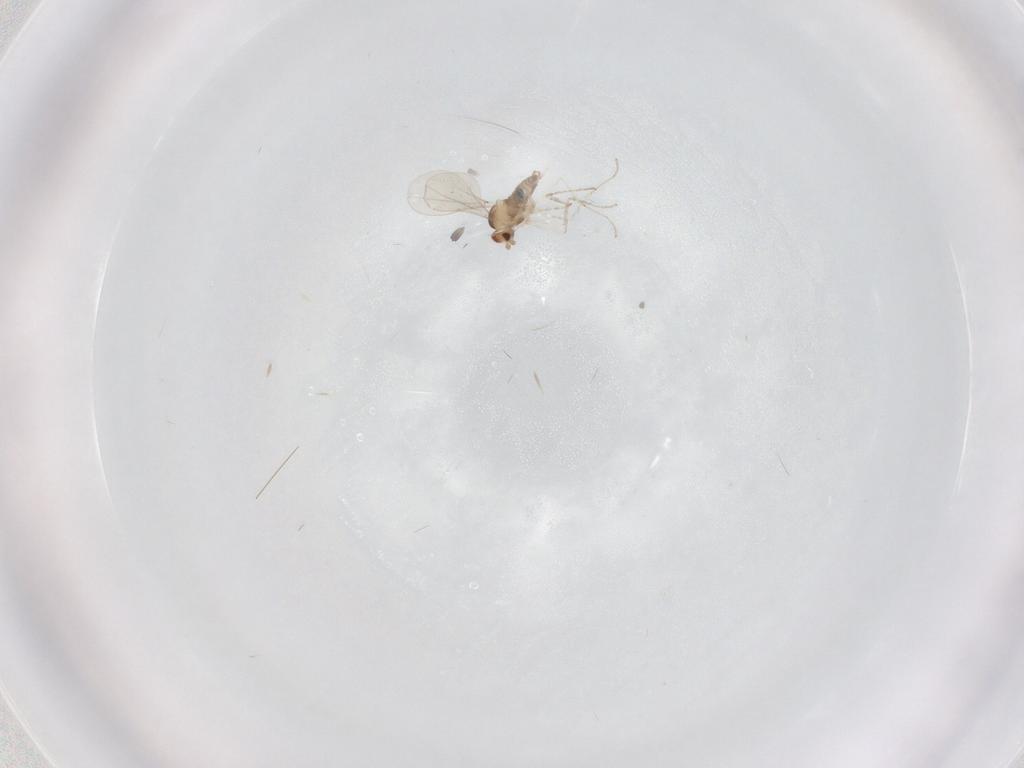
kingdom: Animalia
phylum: Arthropoda
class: Insecta
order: Diptera
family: Cecidomyiidae
